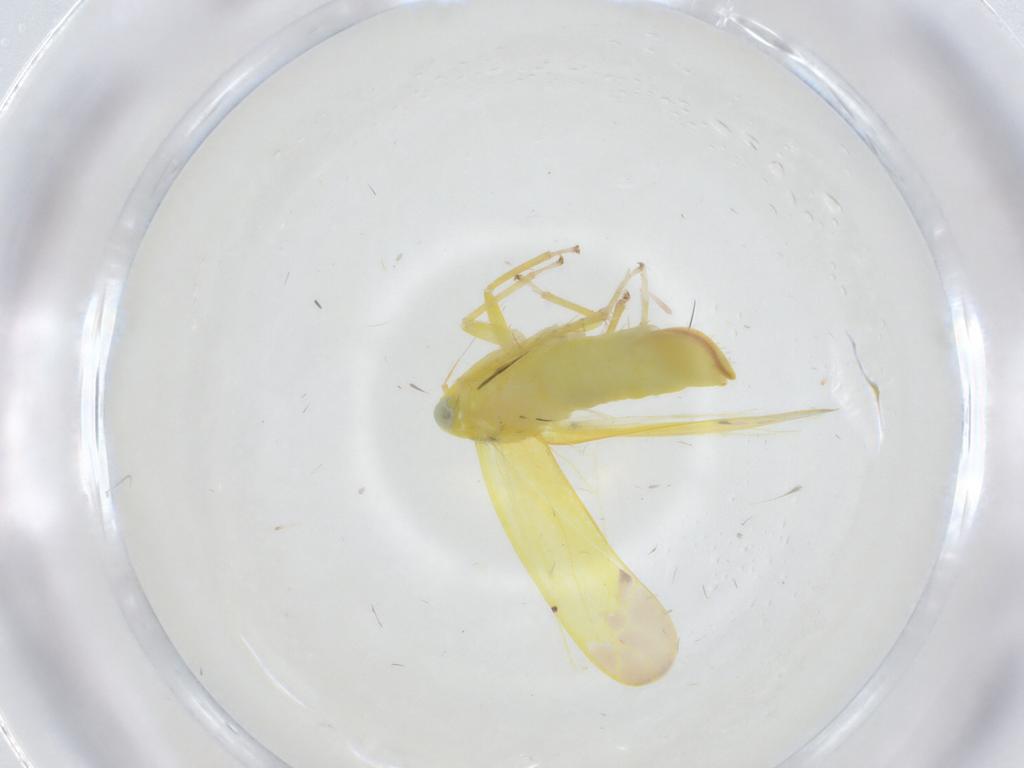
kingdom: Animalia
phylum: Arthropoda
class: Insecta
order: Hemiptera
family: Cicadellidae
